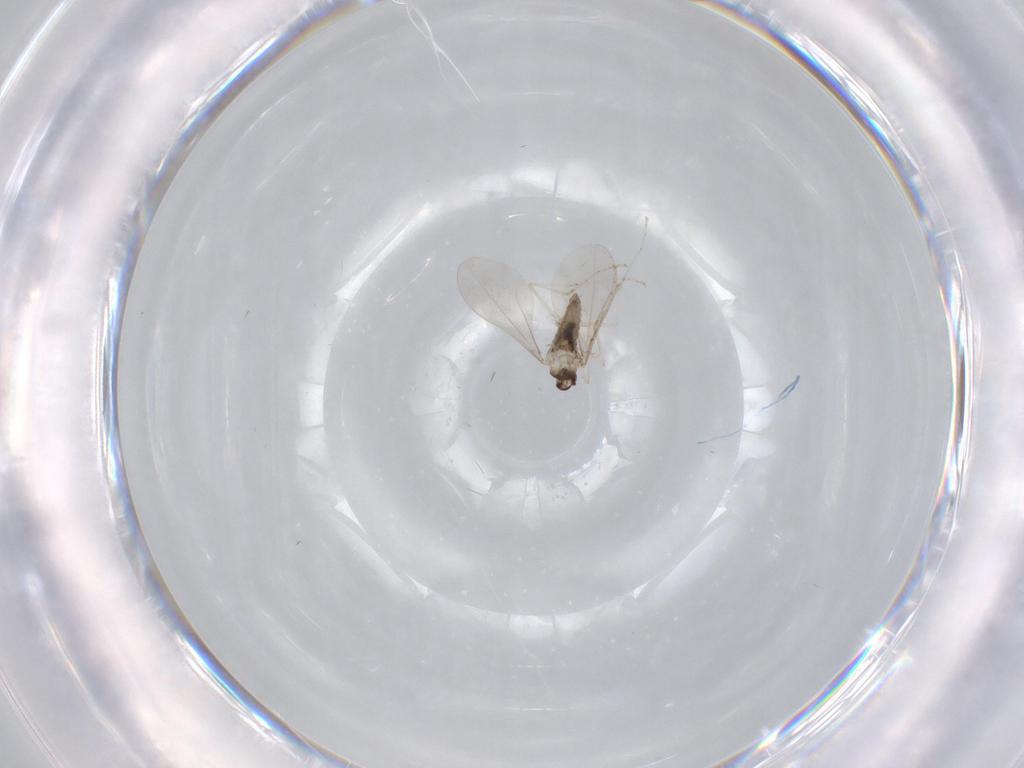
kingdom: Animalia
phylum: Arthropoda
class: Insecta
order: Diptera
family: Cecidomyiidae
